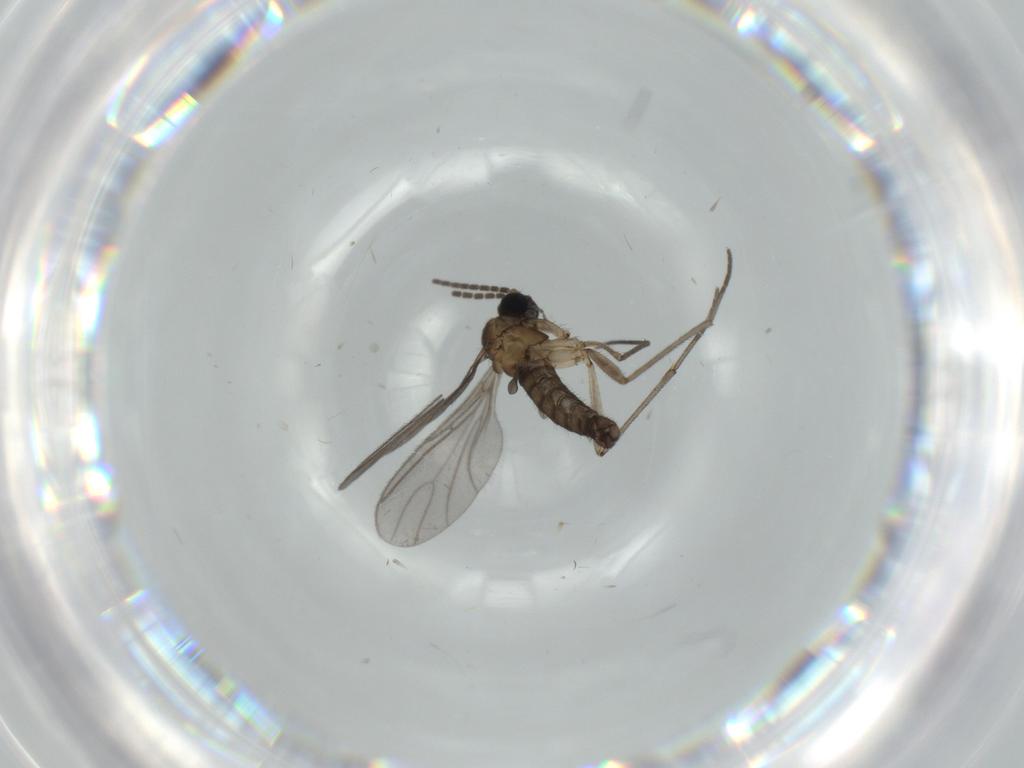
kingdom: Animalia
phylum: Arthropoda
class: Insecta
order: Diptera
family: Sciaridae
